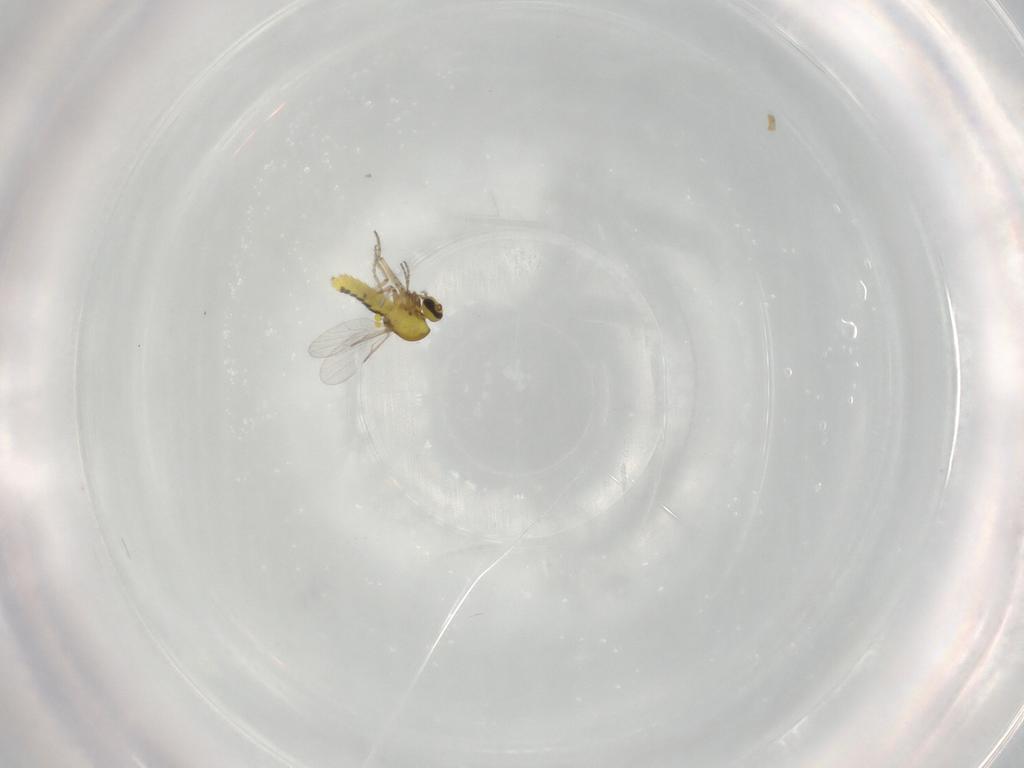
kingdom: Animalia
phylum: Arthropoda
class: Insecta
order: Diptera
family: Ceratopogonidae
